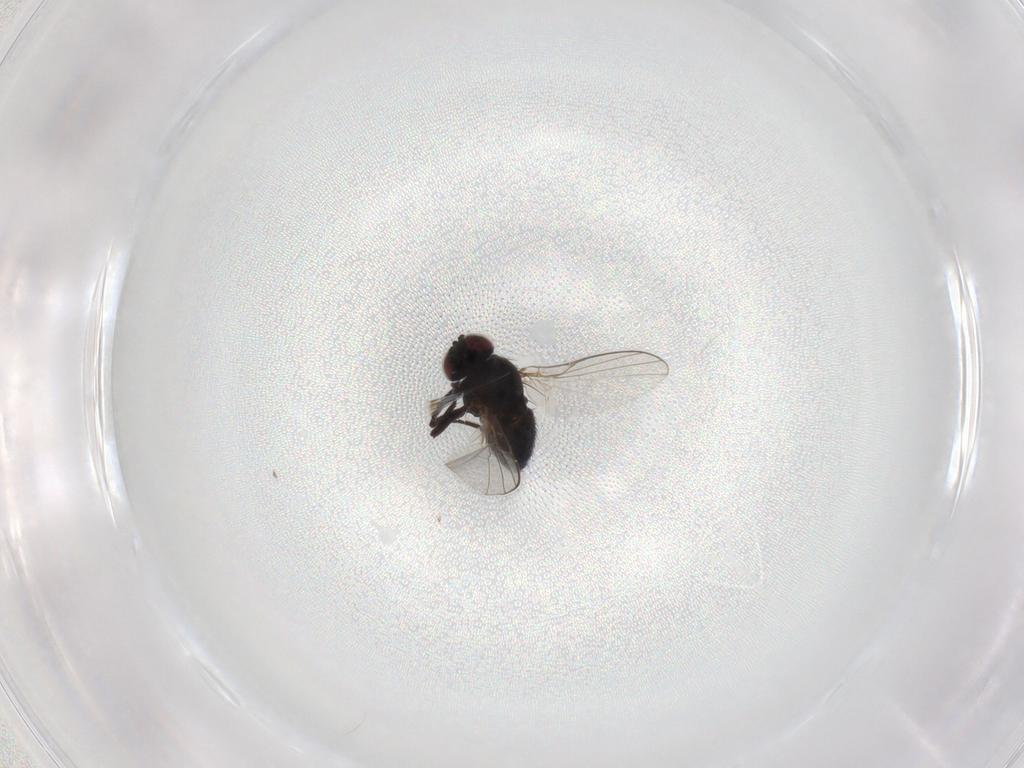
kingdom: Animalia
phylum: Arthropoda
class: Insecta
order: Diptera
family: Agromyzidae
